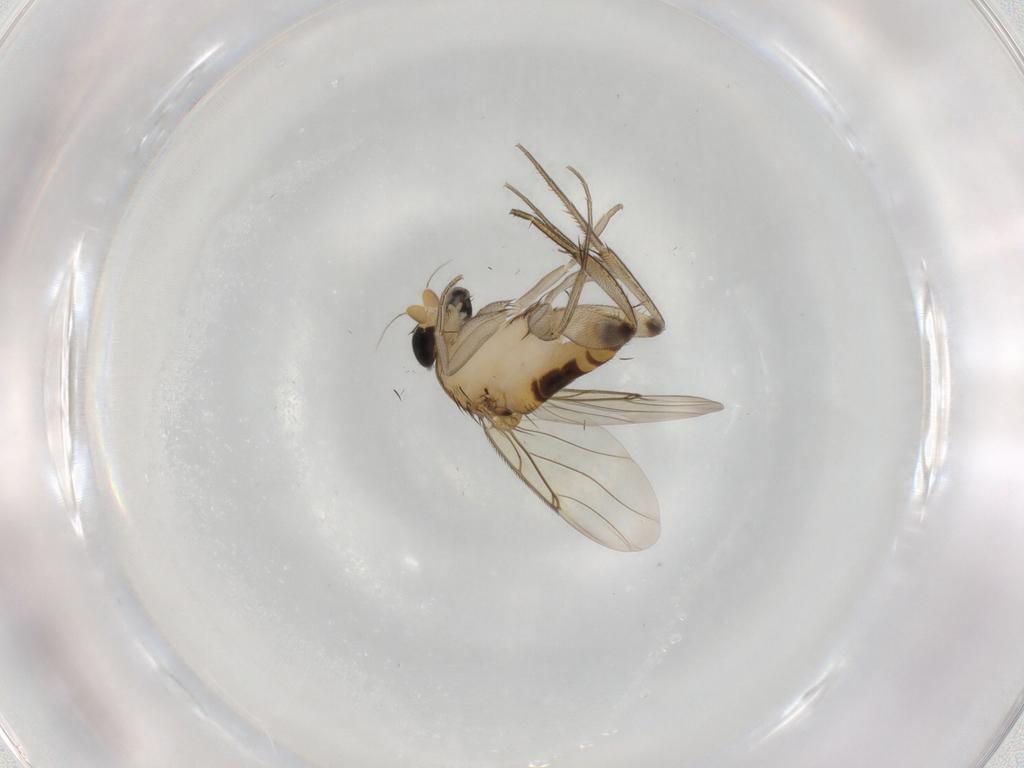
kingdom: Animalia
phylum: Arthropoda
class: Insecta
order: Diptera
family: Phoridae
